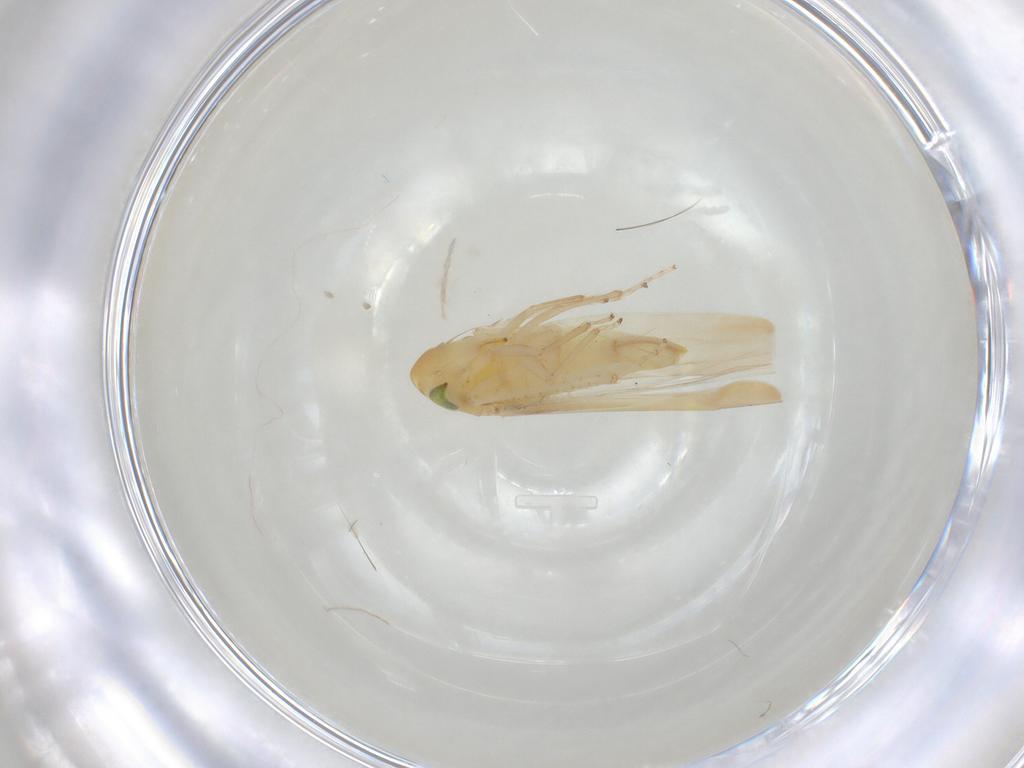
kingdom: Animalia
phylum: Arthropoda
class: Insecta
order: Hemiptera
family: Cicadellidae
